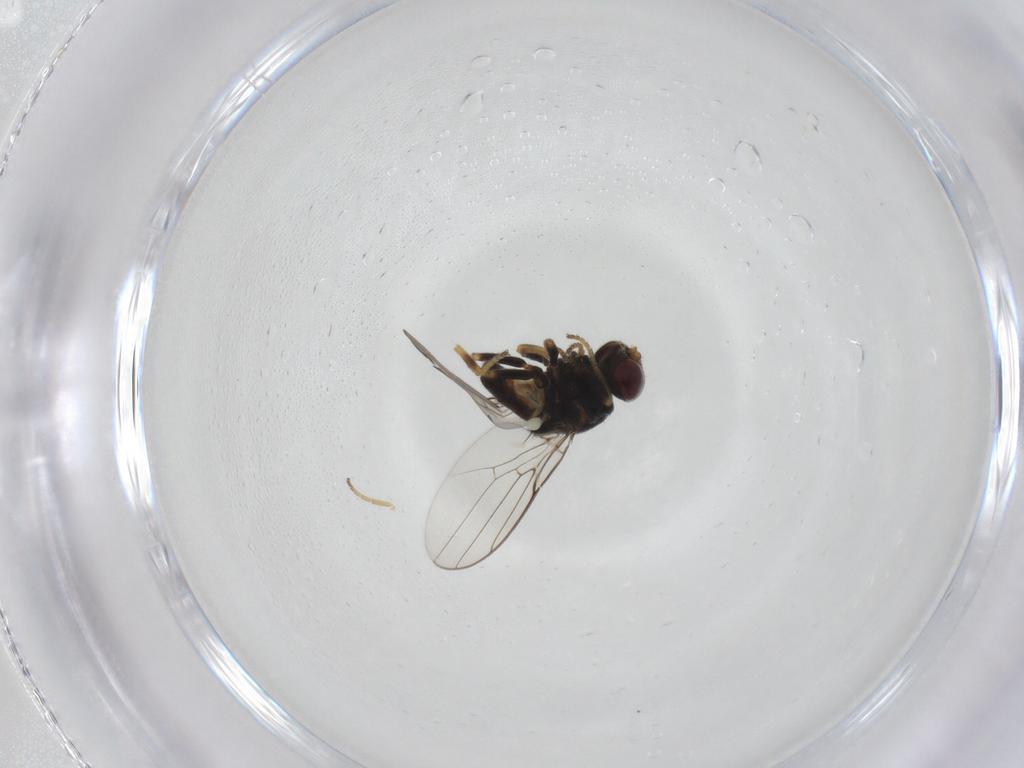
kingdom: Animalia
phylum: Arthropoda
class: Insecta
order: Diptera
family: Chloropidae
